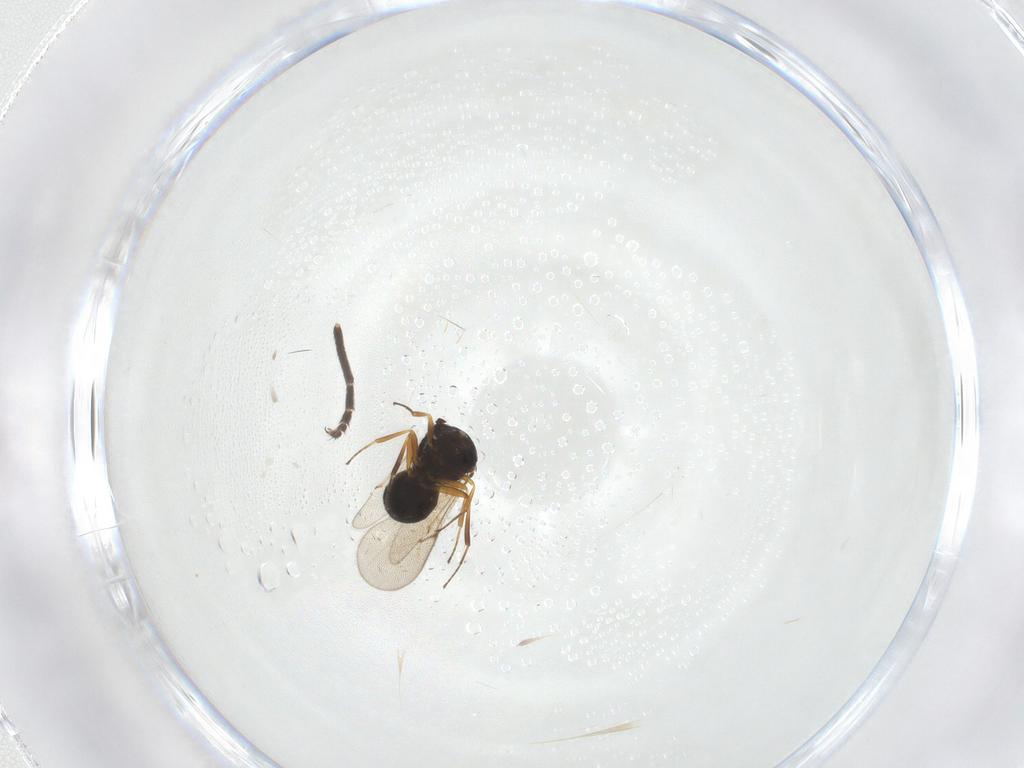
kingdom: Animalia
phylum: Arthropoda
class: Insecta
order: Hymenoptera
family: Scelionidae
